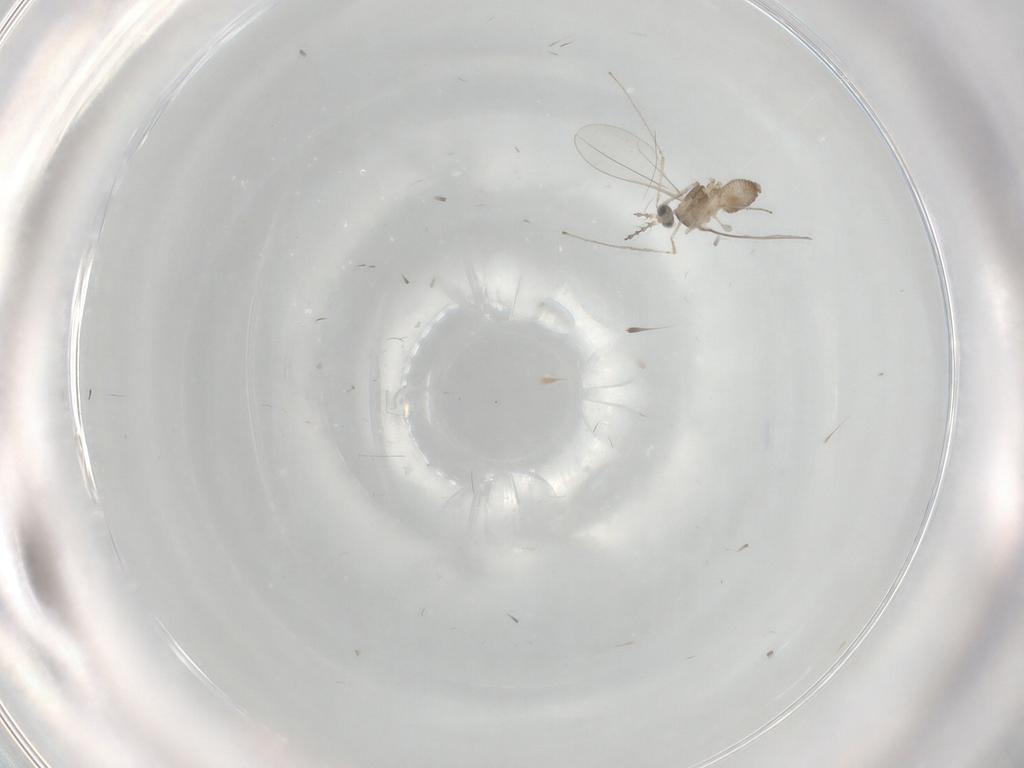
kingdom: Animalia
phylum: Arthropoda
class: Insecta
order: Diptera
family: Cecidomyiidae
